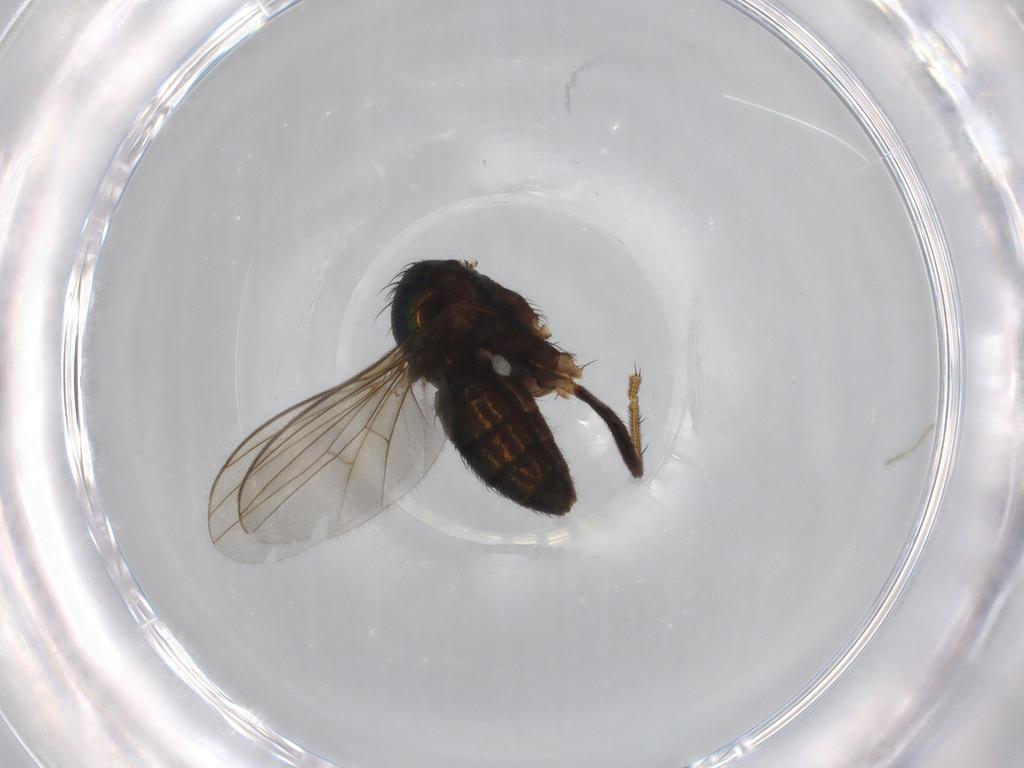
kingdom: Animalia
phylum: Arthropoda
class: Insecta
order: Diptera
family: Dolichopodidae
